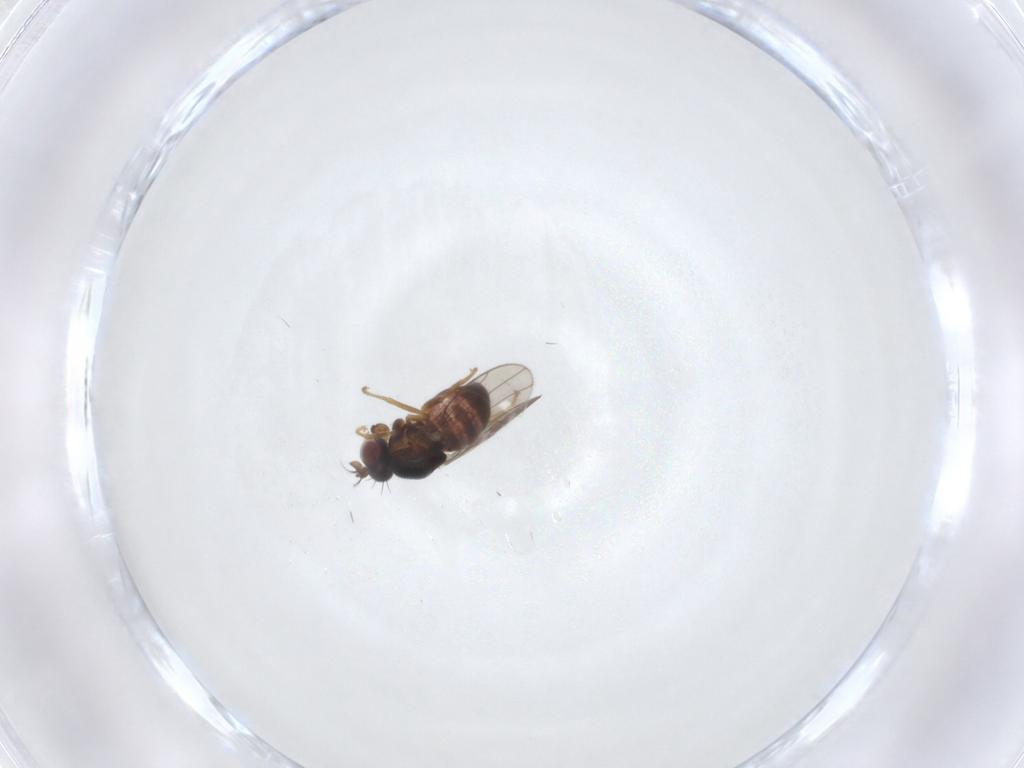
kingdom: Animalia
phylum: Arthropoda
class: Insecta
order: Diptera
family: Ephydridae
